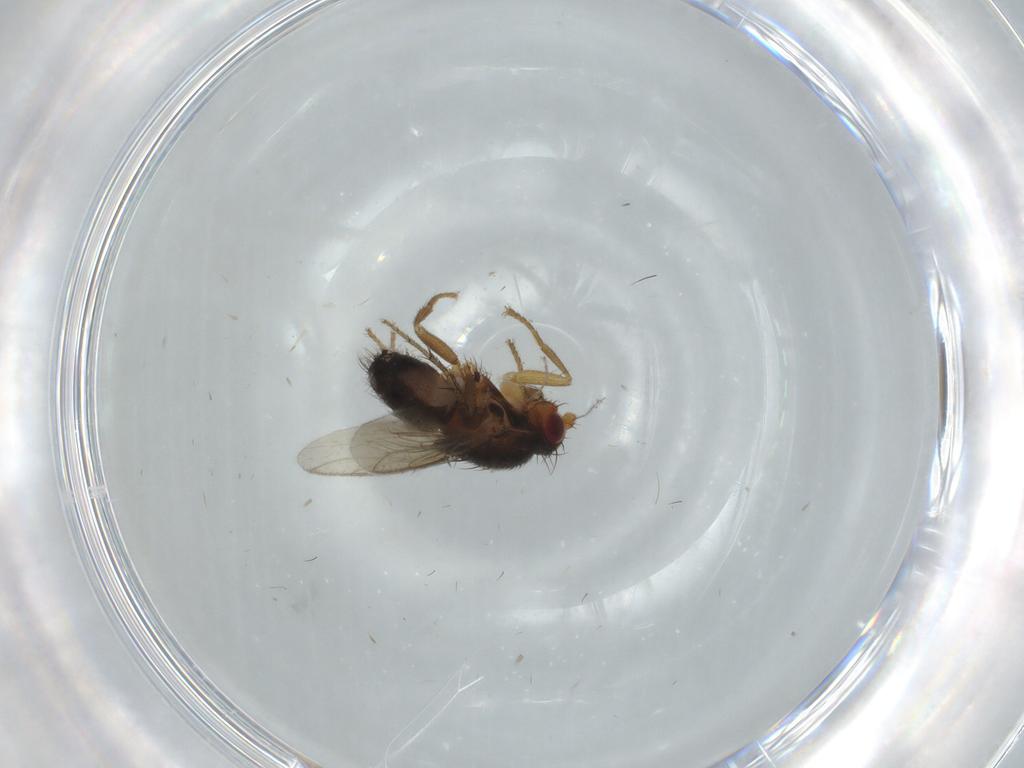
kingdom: Animalia
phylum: Arthropoda
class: Insecta
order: Diptera
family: Sphaeroceridae
